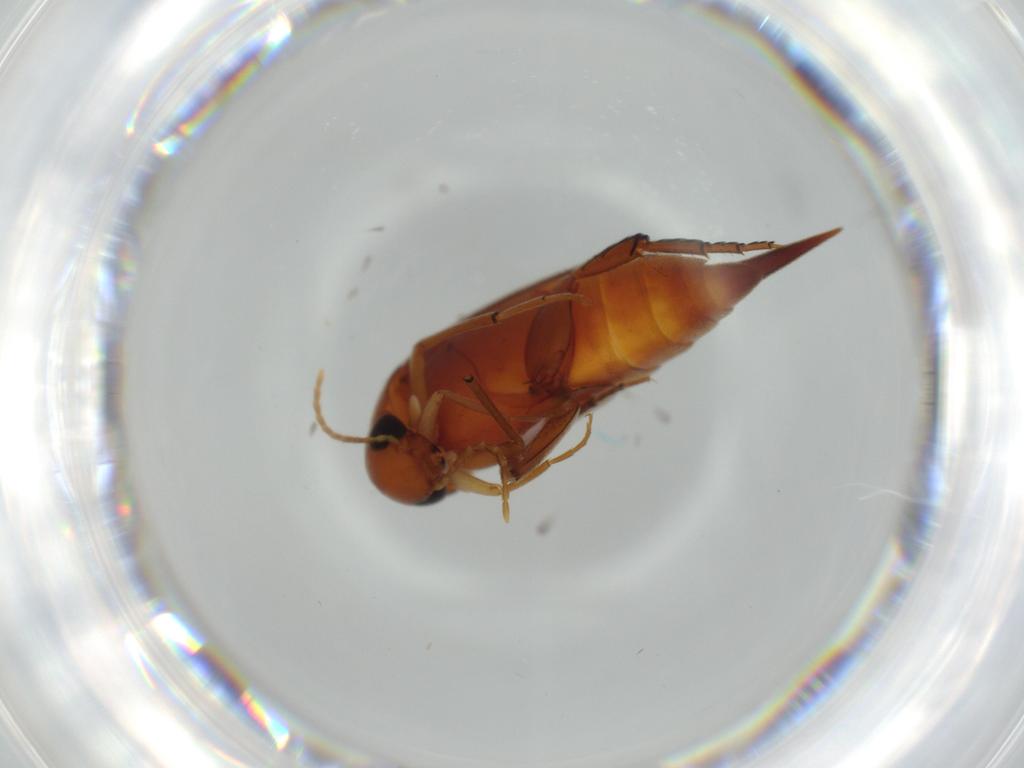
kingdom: Animalia
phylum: Arthropoda
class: Insecta
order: Coleoptera
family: Mordellidae
